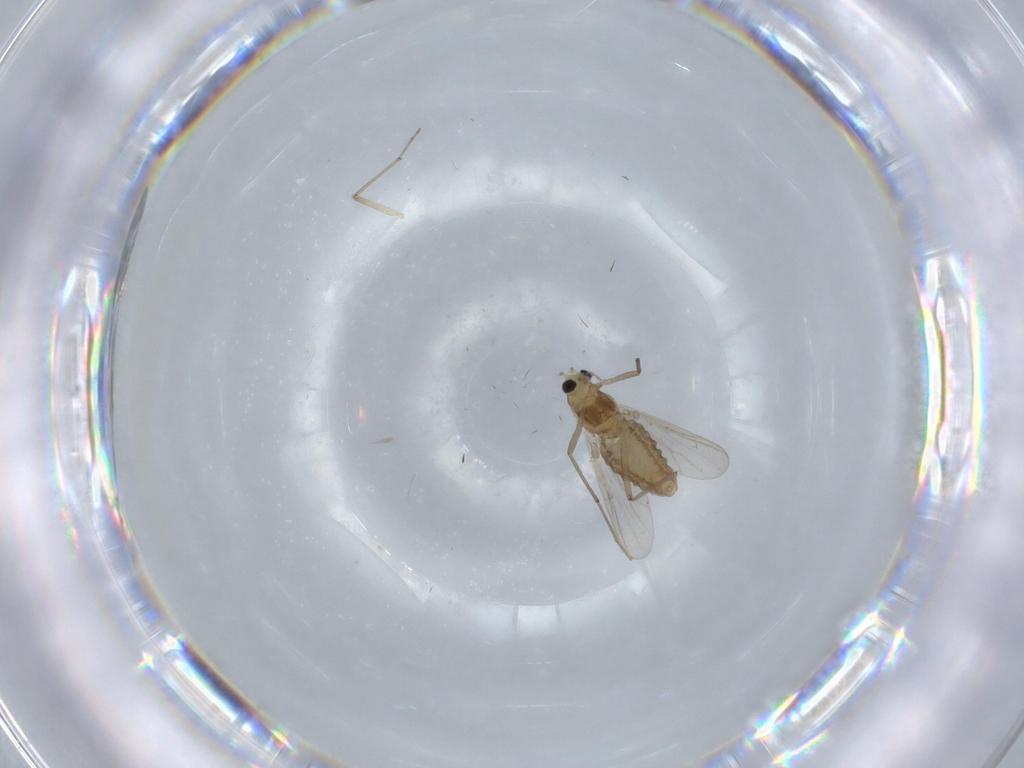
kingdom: Animalia
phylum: Arthropoda
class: Insecta
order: Diptera
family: Chironomidae
